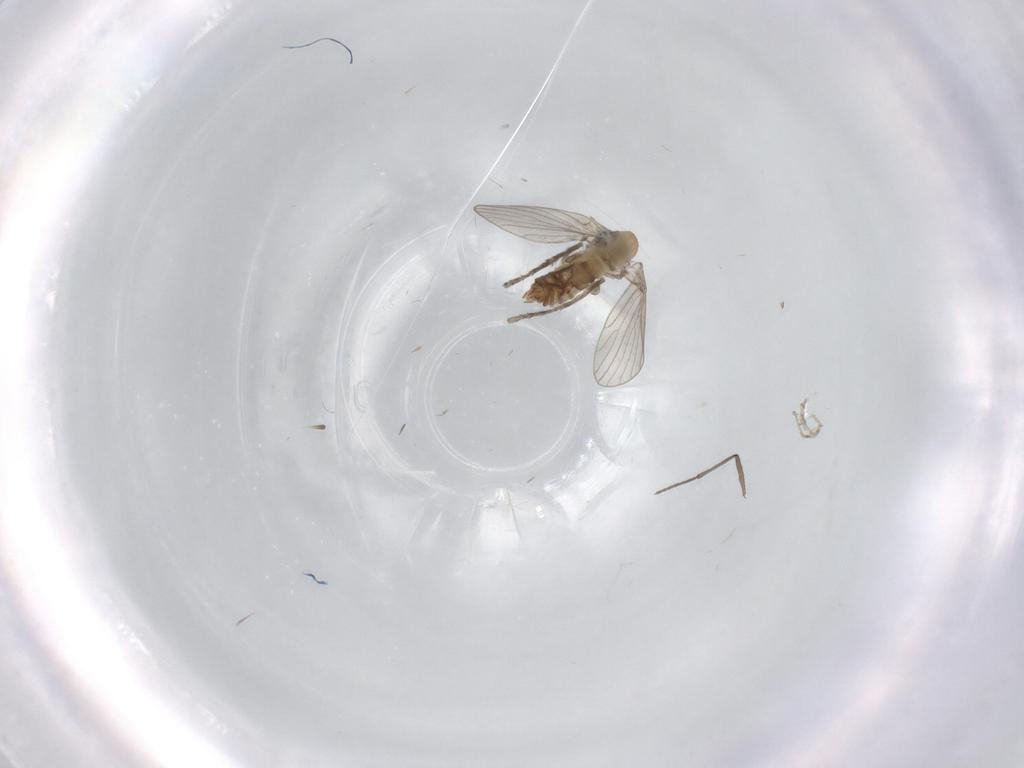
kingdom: Animalia
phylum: Arthropoda
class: Insecta
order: Diptera
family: Sciaridae
